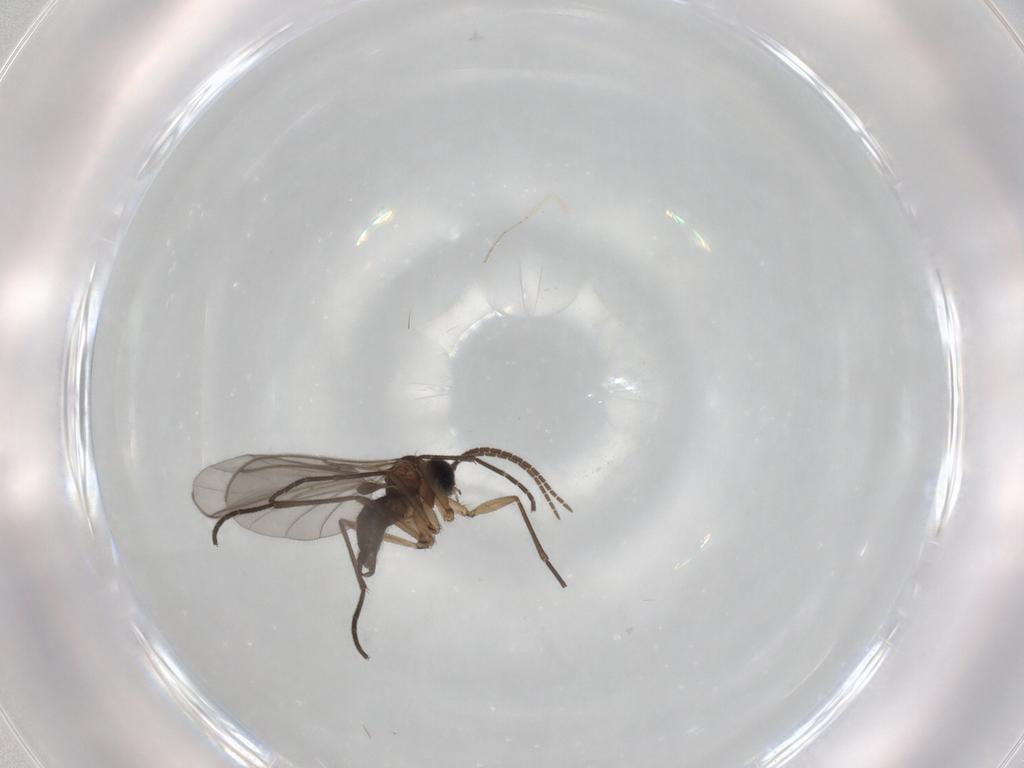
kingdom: Animalia
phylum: Arthropoda
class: Insecta
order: Diptera
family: Sciaridae
